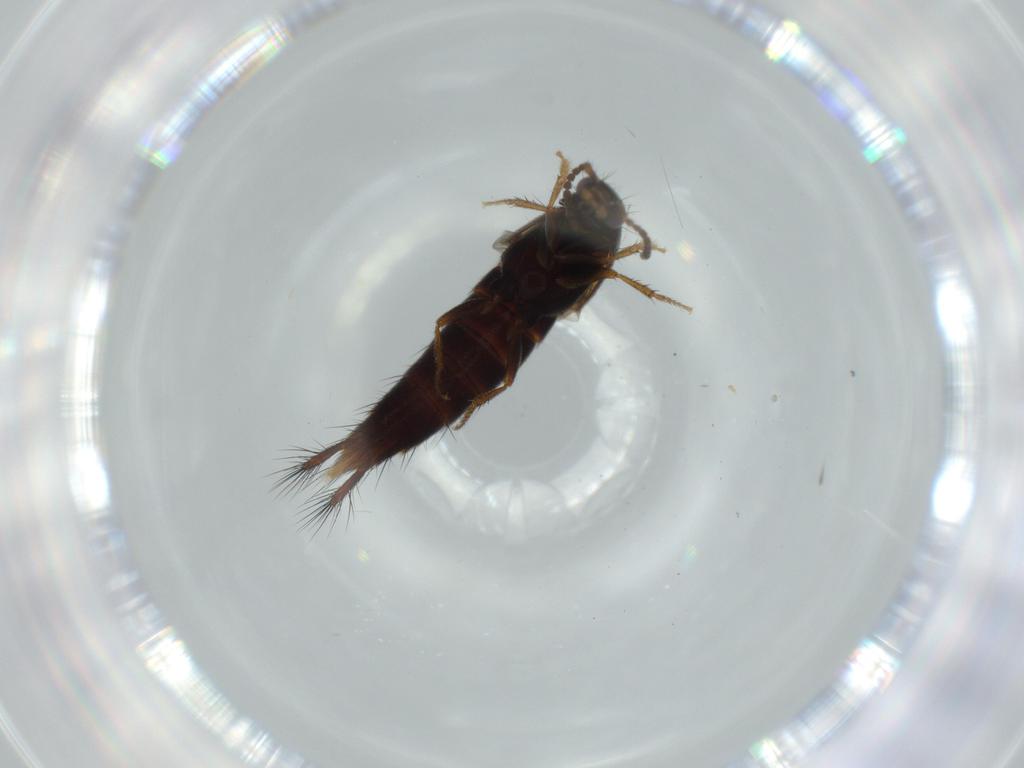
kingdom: Animalia
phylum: Arthropoda
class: Insecta
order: Coleoptera
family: Staphylinidae
